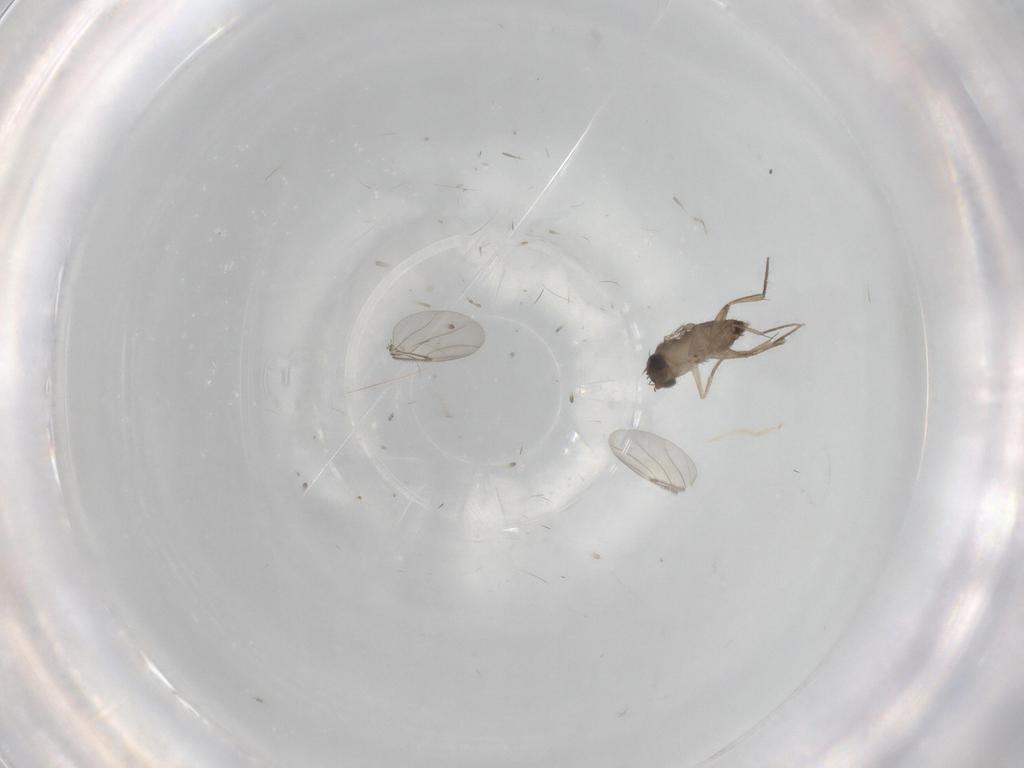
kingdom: Animalia
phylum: Arthropoda
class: Insecta
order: Diptera
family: Phoridae
